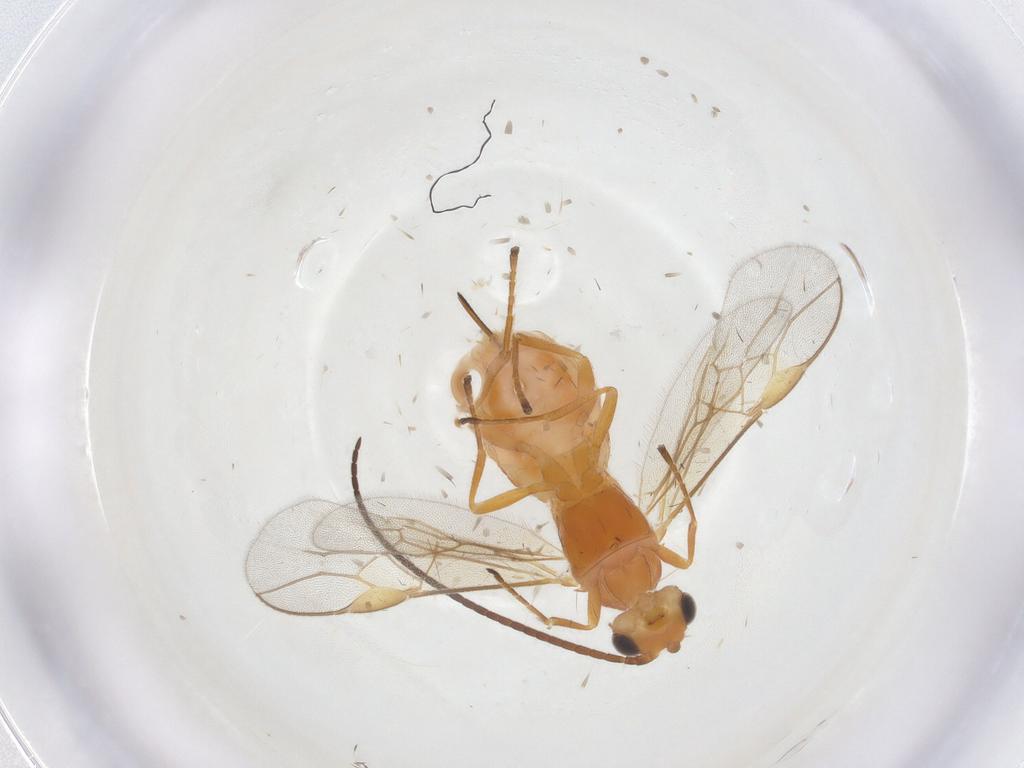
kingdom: Animalia
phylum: Arthropoda
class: Insecta
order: Hymenoptera
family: Braconidae
